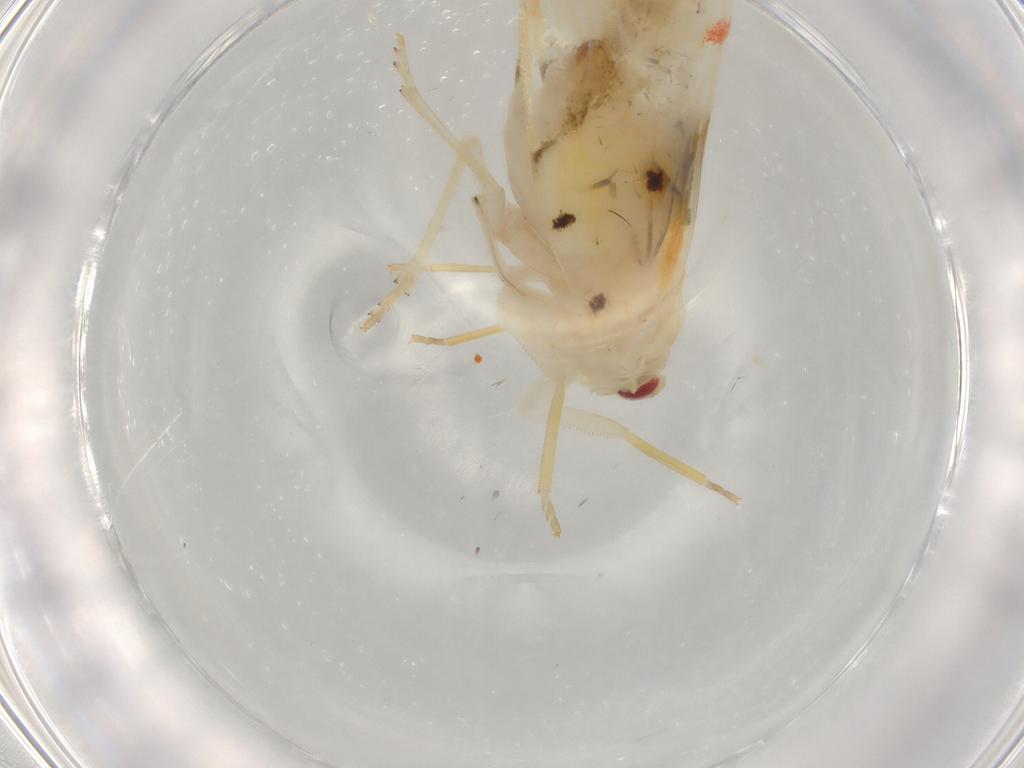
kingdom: Animalia
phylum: Arthropoda
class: Insecta
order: Hemiptera
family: Cicadellidae
